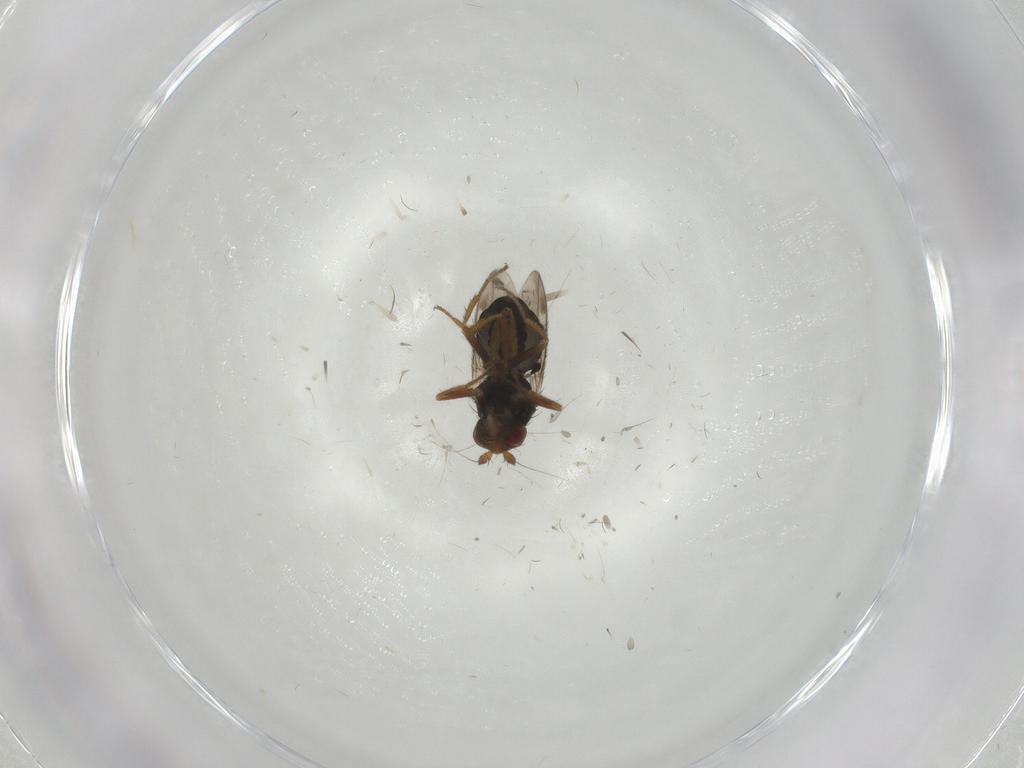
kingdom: Animalia
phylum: Arthropoda
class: Insecta
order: Diptera
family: Sphaeroceridae
